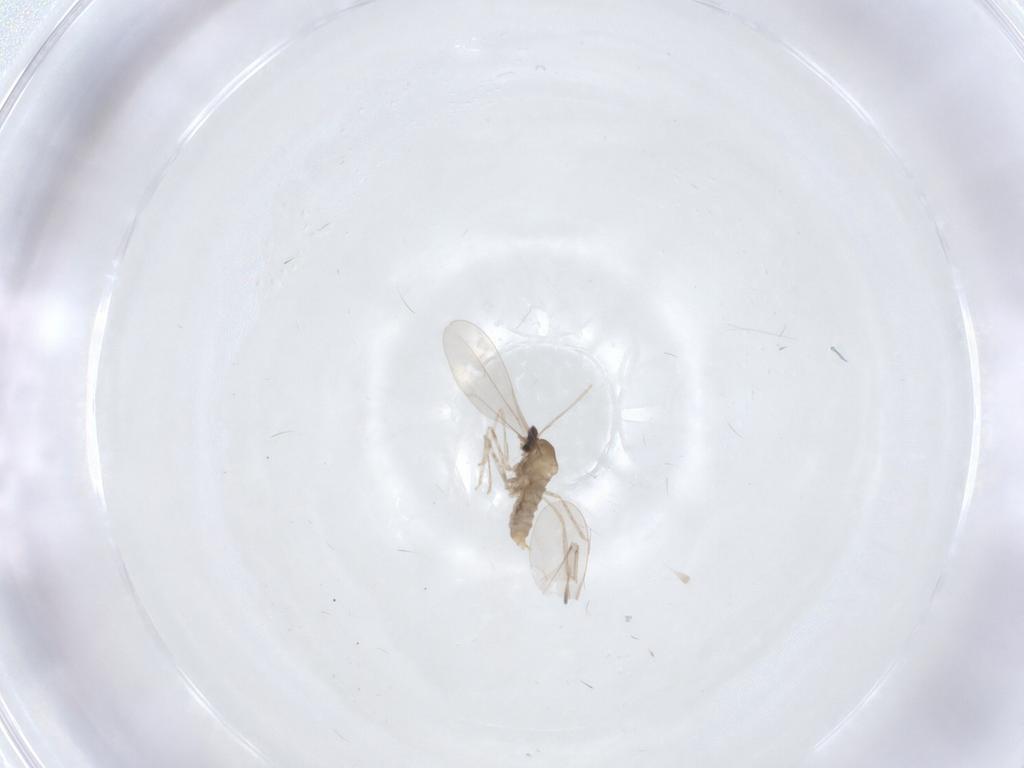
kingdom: Animalia
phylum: Arthropoda
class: Insecta
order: Diptera
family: Cecidomyiidae
